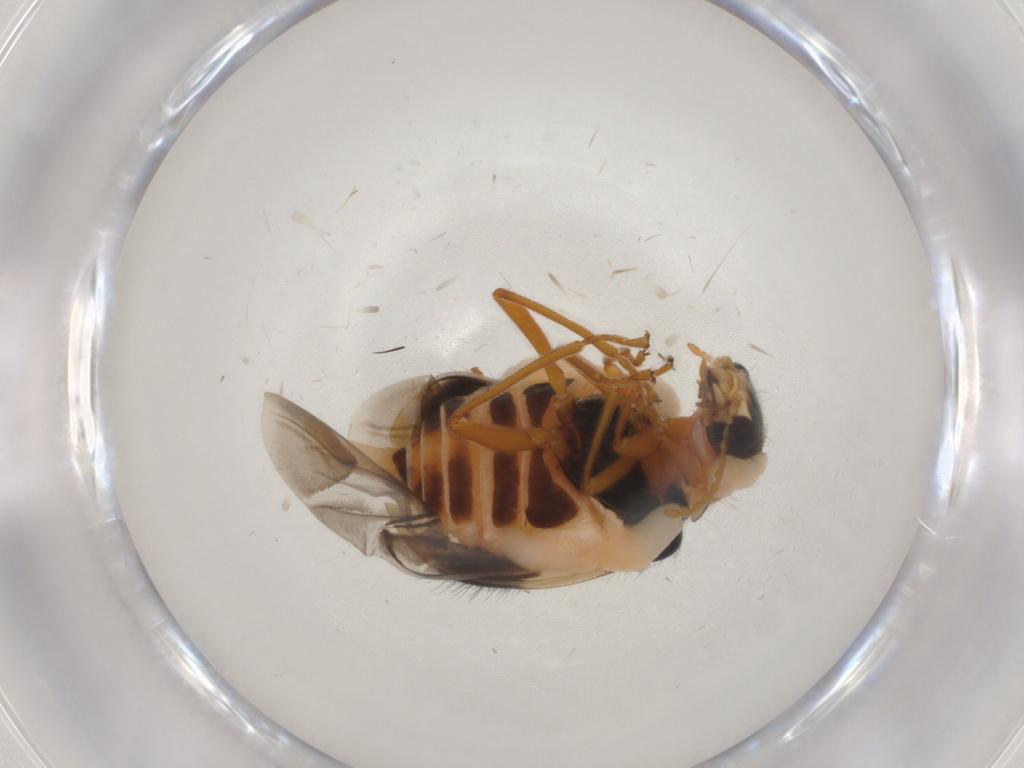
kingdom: Animalia
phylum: Arthropoda
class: Insecta
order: Coleoptera
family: Melyridae
